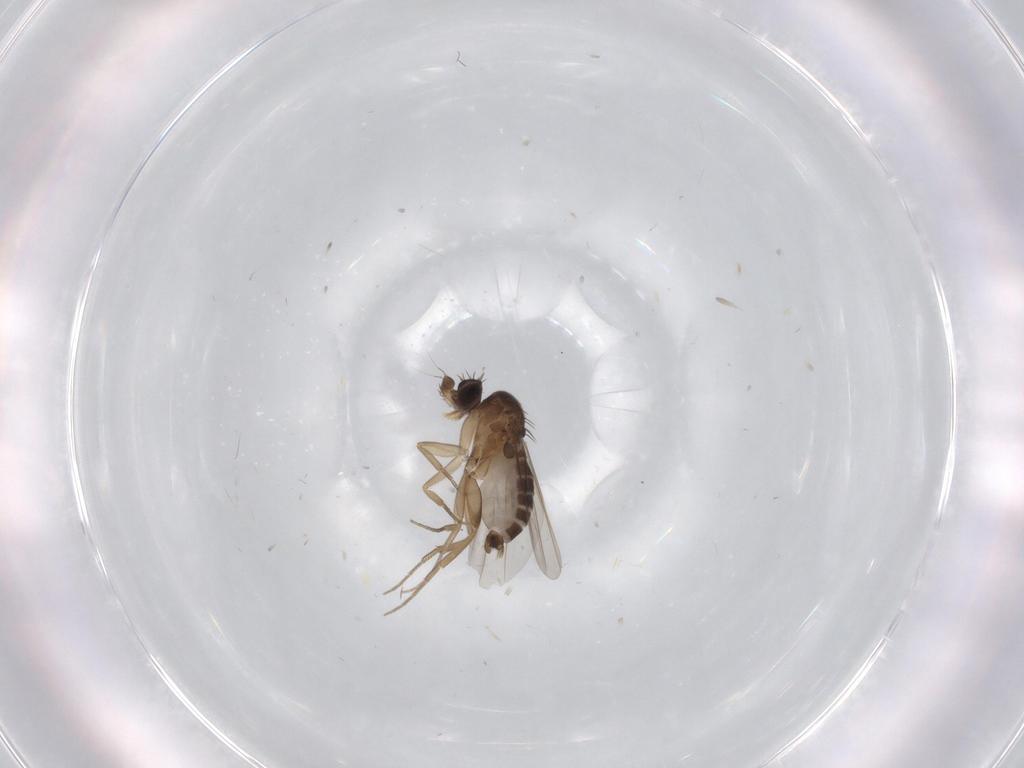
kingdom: Animalia
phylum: Arthropoda
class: Insecta
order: Diptera
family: Phoridae
